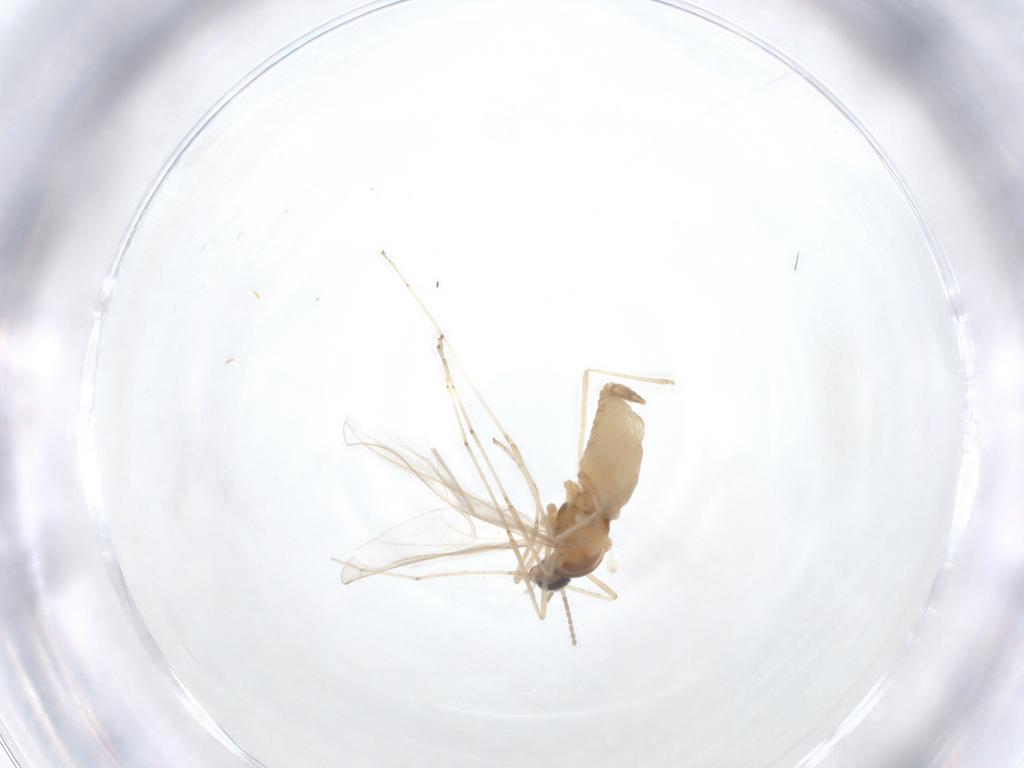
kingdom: Animalia
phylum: Arthropoda
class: Insecta
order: Diptera
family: Cecidomyiidae
